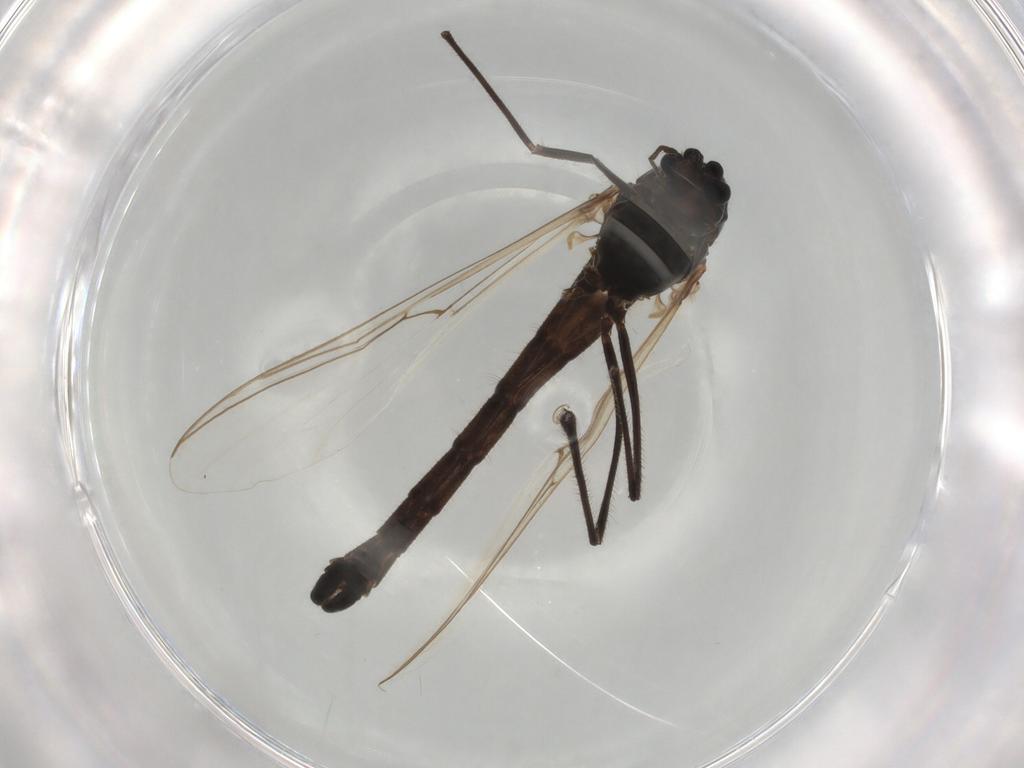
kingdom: Animalia
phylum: Arthropoda
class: Insecta
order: Diptera
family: Chironomidae
